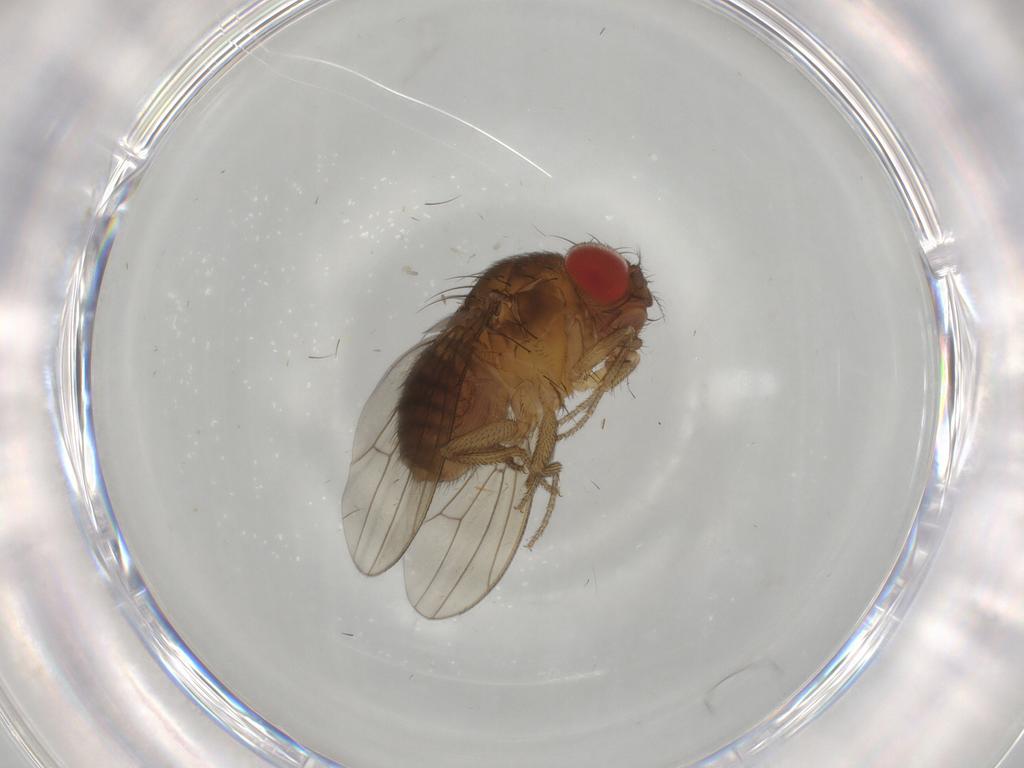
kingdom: Animalia
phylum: Arthropoda
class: Insecta
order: Diptera
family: Drosophilidae
